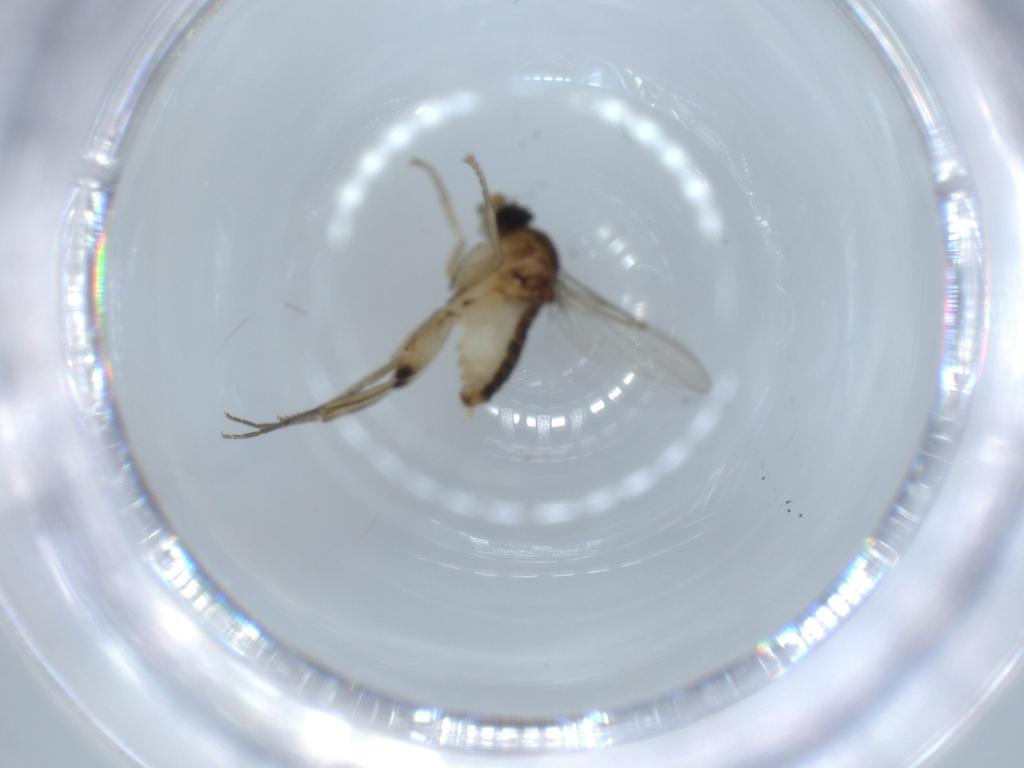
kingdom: Animalia
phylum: Arthropoda
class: Insecta
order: Diptera
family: Phoridae
